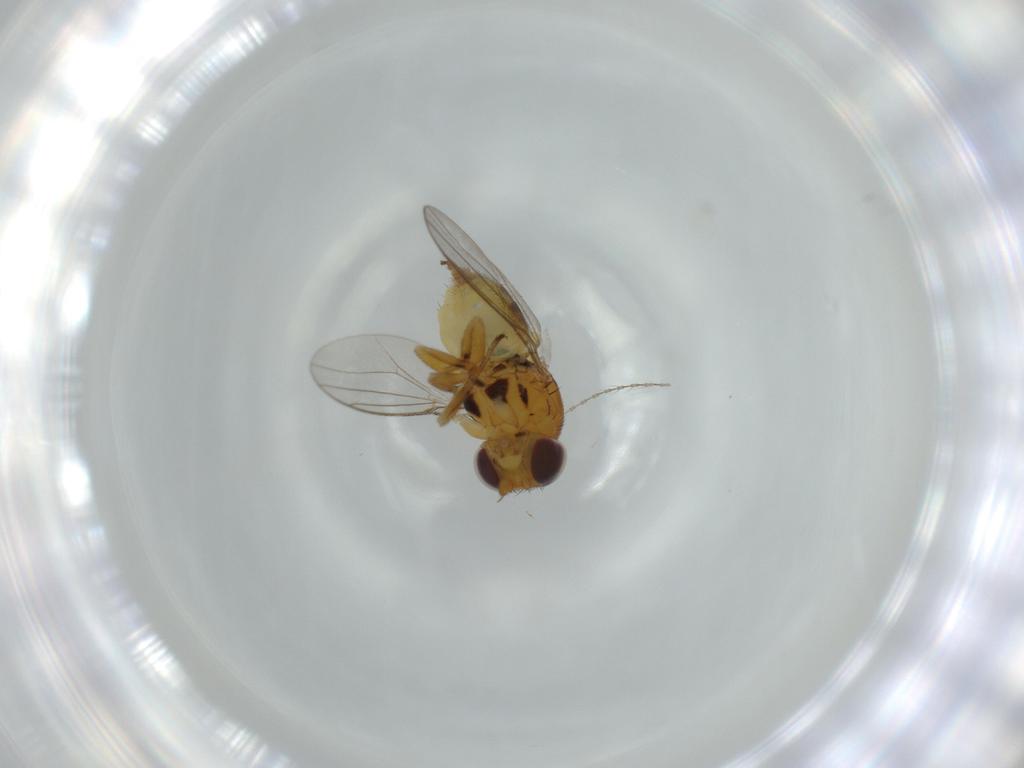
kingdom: Animalia
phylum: Arthropoda
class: Insecta
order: Diptera
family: Chloropidae
